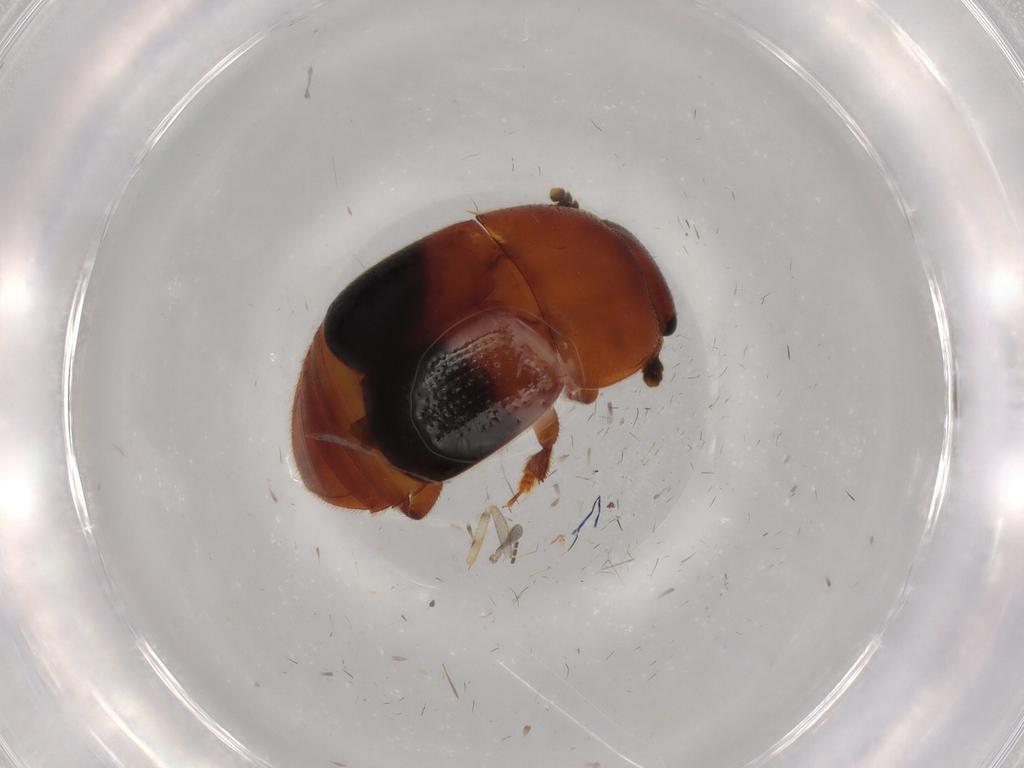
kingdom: Animalia
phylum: Arthropoda
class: Insecta
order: Coleoptera
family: Nitidulidae
